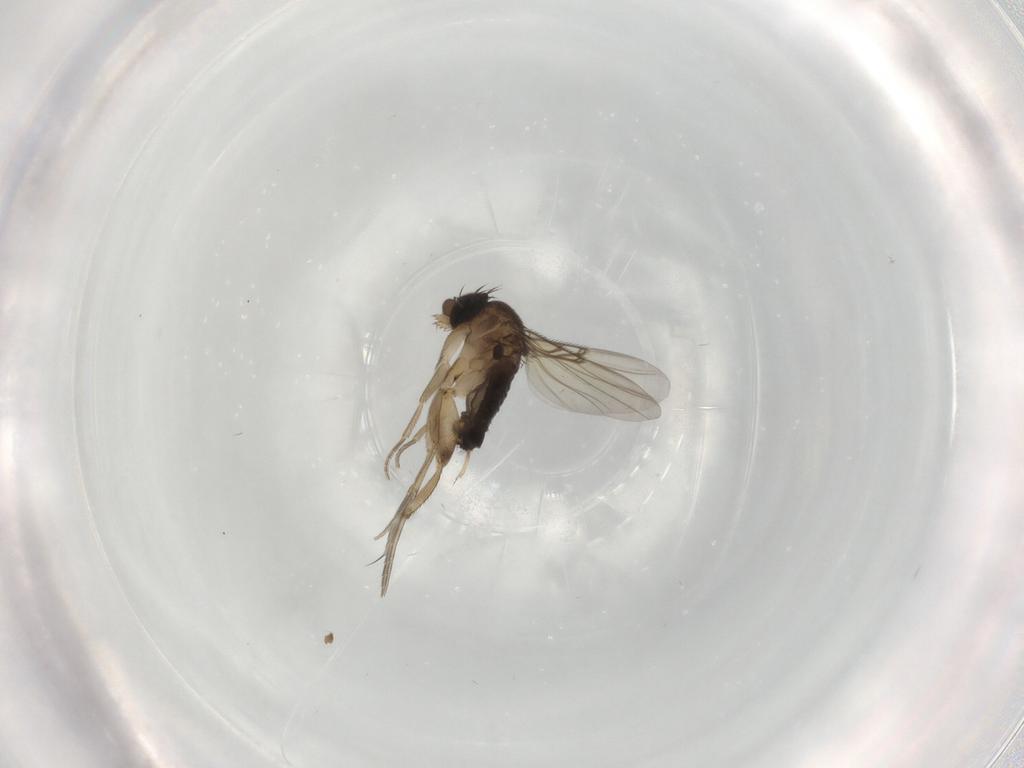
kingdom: Animalia
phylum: Arthropoda
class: Insecta
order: Diptera
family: Phoridae
